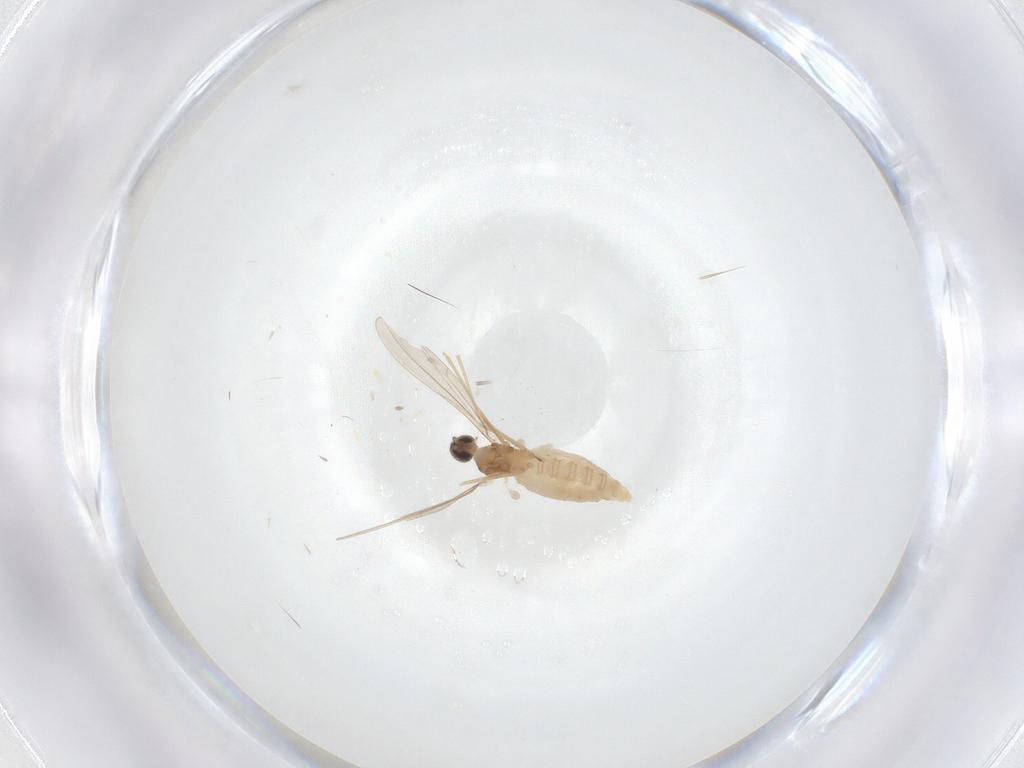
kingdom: Animalia
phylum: Arthropoda
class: Insecta
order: Diptera
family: Cecidomyiidae
